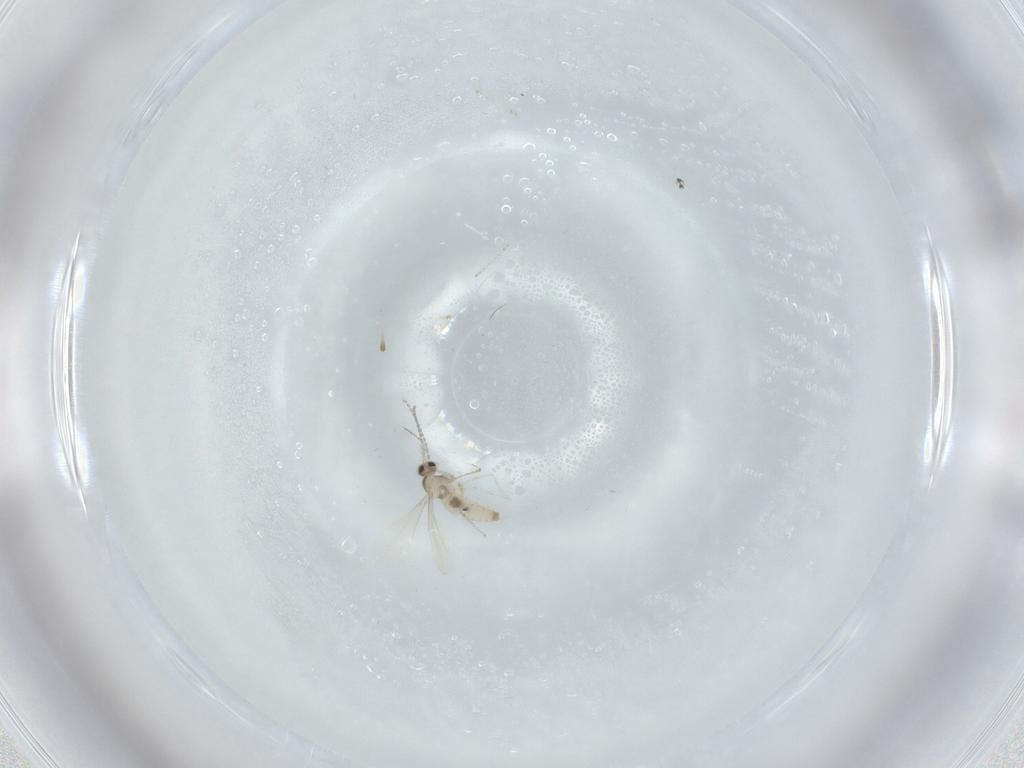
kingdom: Animalia
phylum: Arthropoda
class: Insecta
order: Diptera
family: Cecidomyiidae
